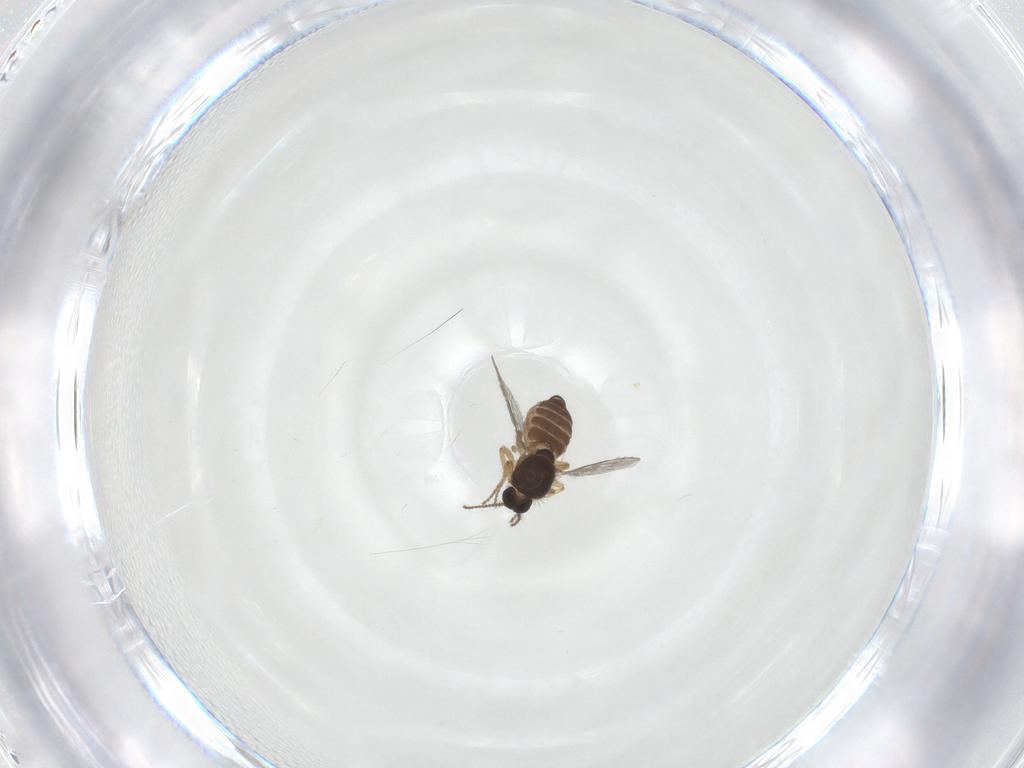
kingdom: Animalia
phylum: Arthropoda
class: Insecta
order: Diptera
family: Ceratopogonidae
